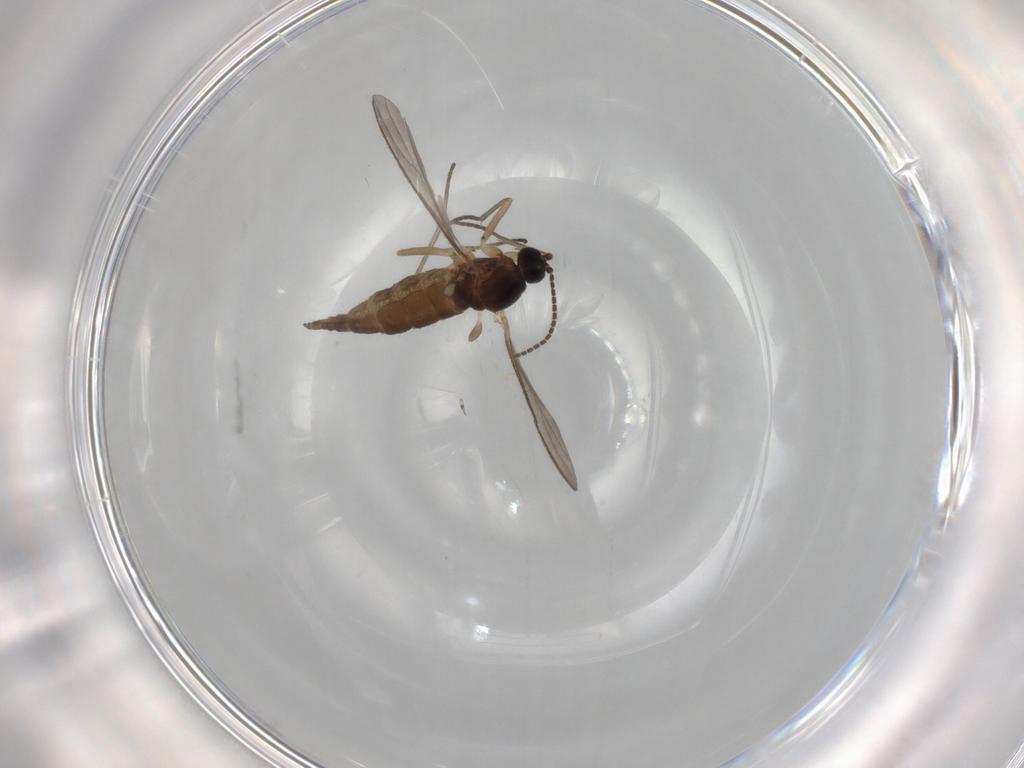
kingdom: Animalia
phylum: Arthropoda
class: Insecta
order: Diptera
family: Sciaridae
